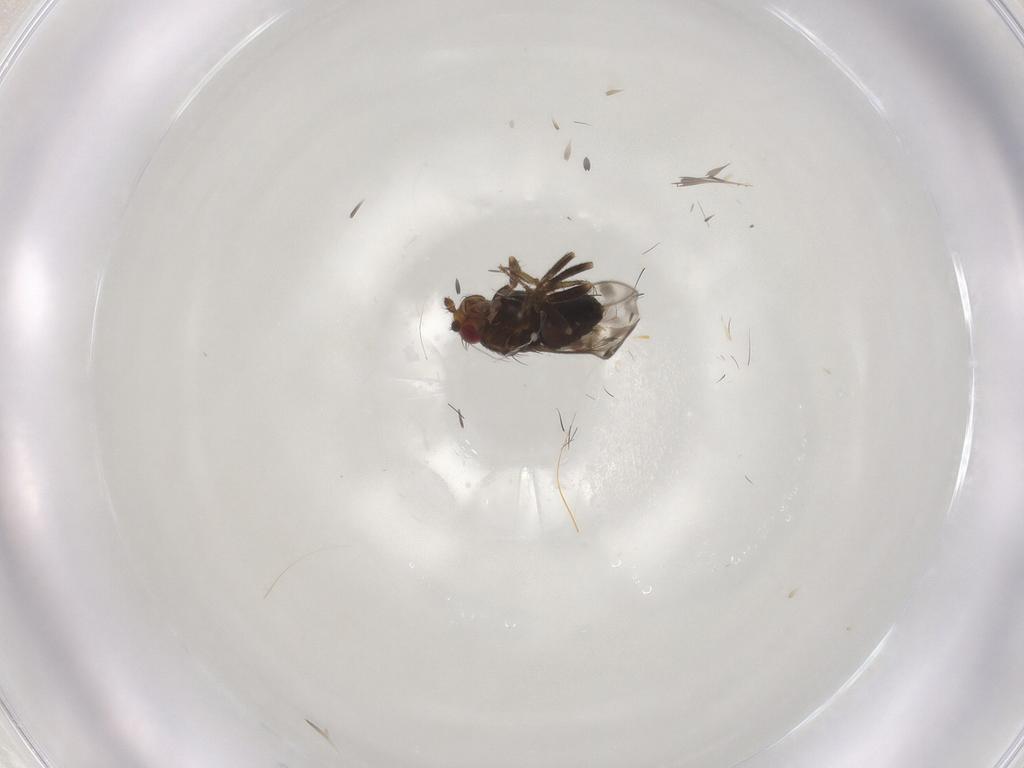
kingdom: Animalia
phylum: Arthropoda
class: Insecta
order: Diptera
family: Sphaeroceridae
